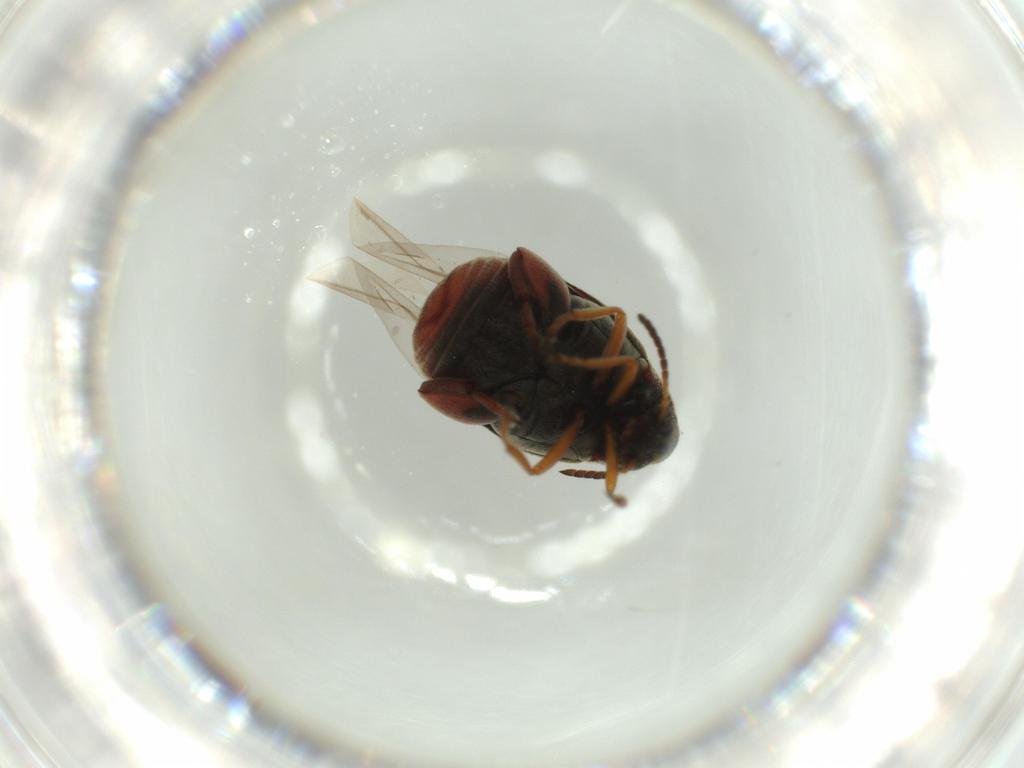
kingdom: Animalia
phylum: Arthropoda
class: Insecta
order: Coleoptera
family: Chrysomelidae
